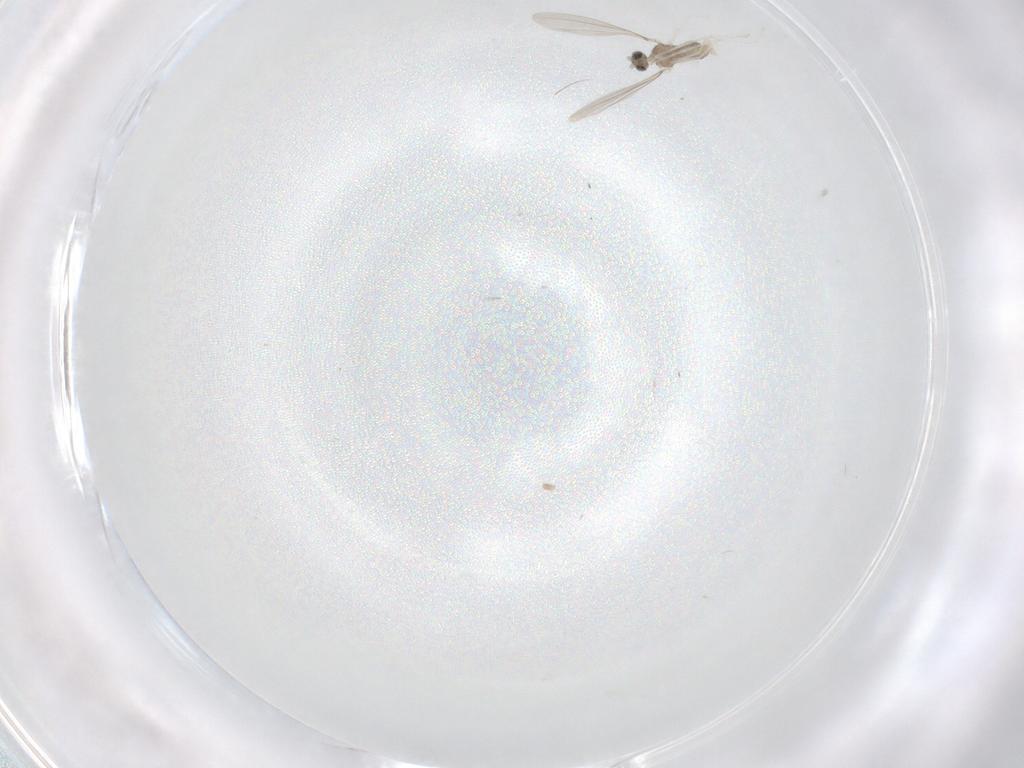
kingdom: Animalia
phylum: Arthropoda
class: Insecta
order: Diptera
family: Cecidomyiidae
